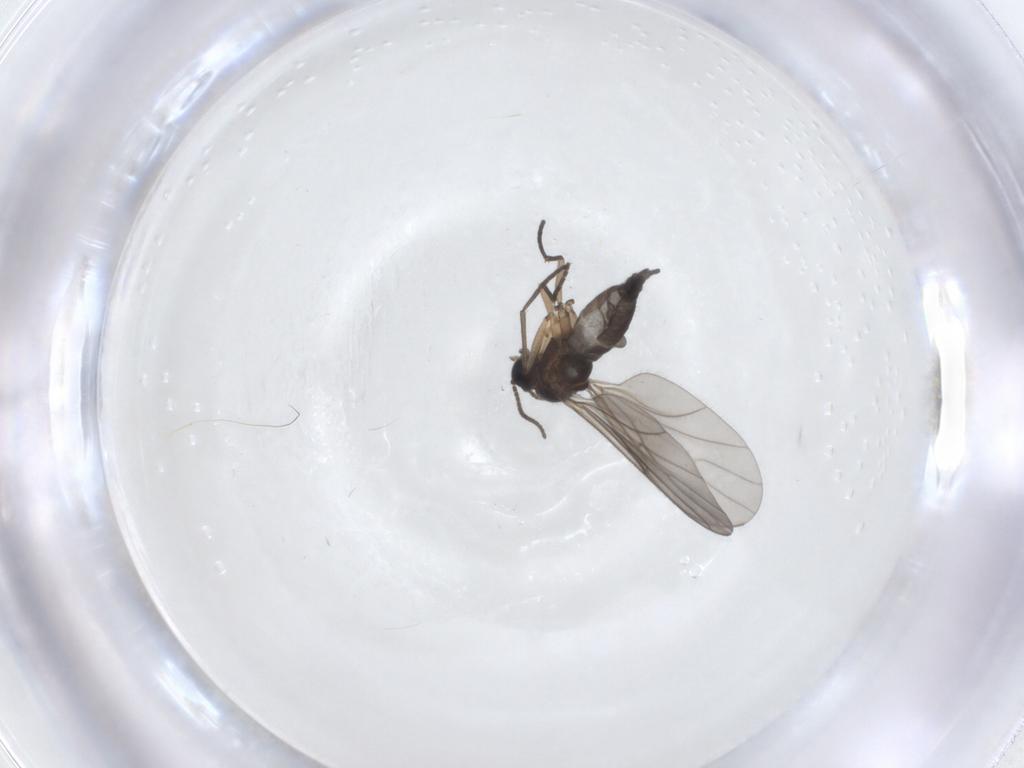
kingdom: Animalia
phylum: Arthropoda
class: Insecta
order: Diptera
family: Sciaridae
